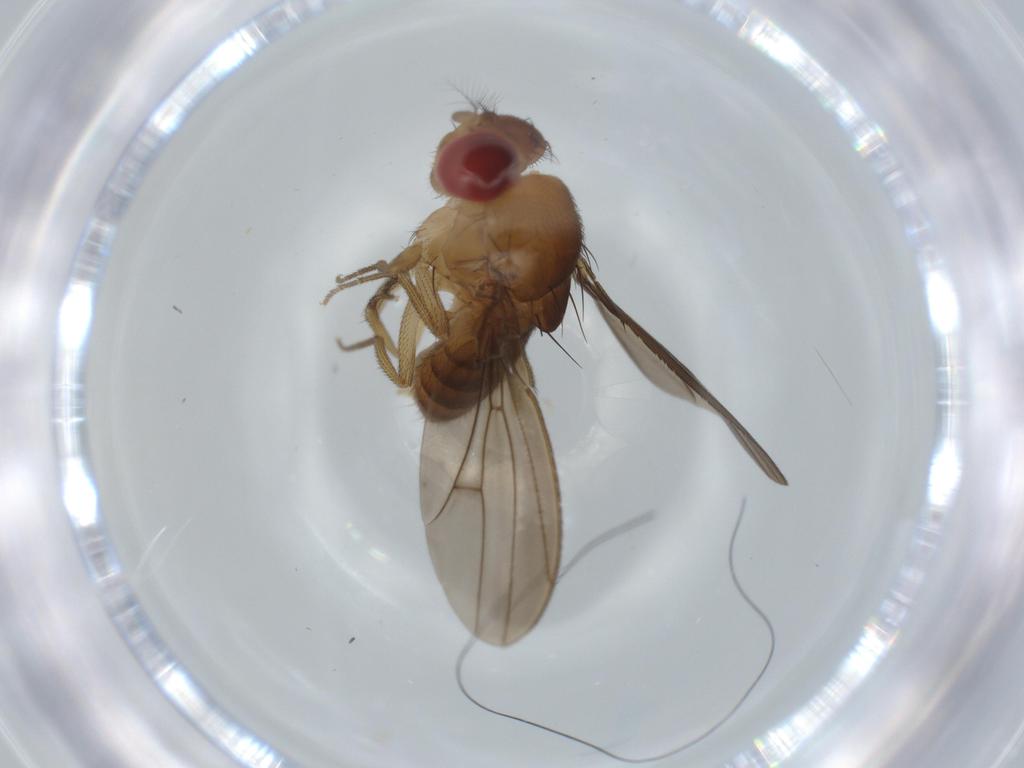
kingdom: Animalia
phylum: Arthropoda
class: Insecta
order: Diptera
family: Drosophilidae
